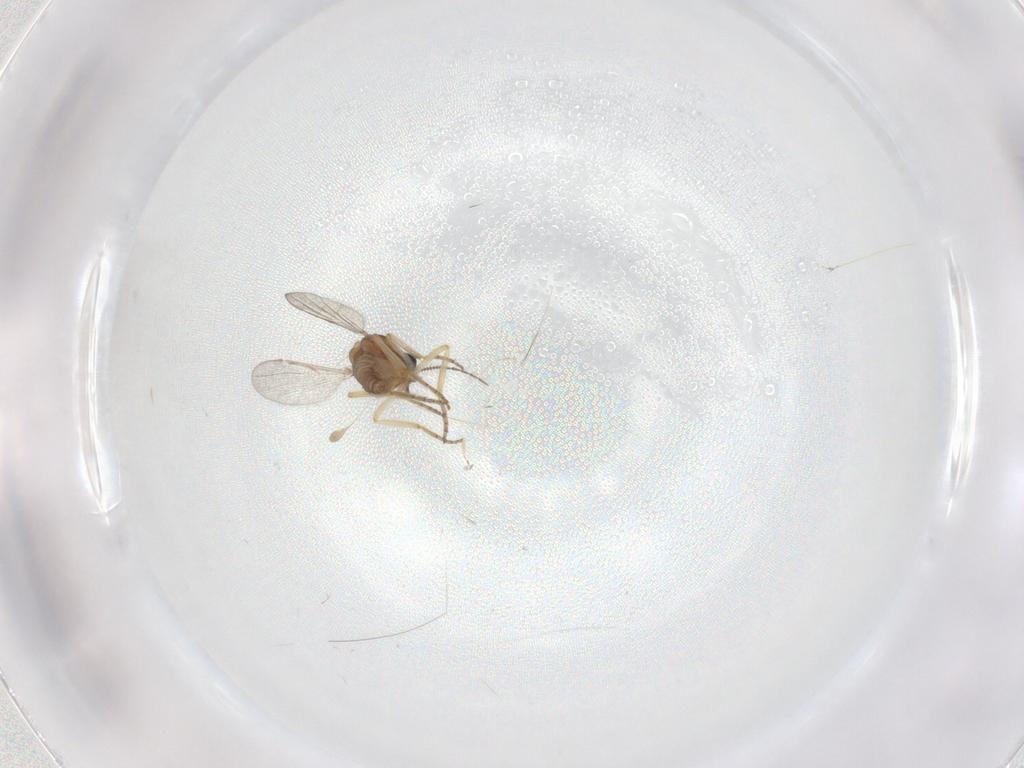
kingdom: Animalia
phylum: Arthropoda
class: Insecta
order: Diptera
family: Ceratopogonidae
